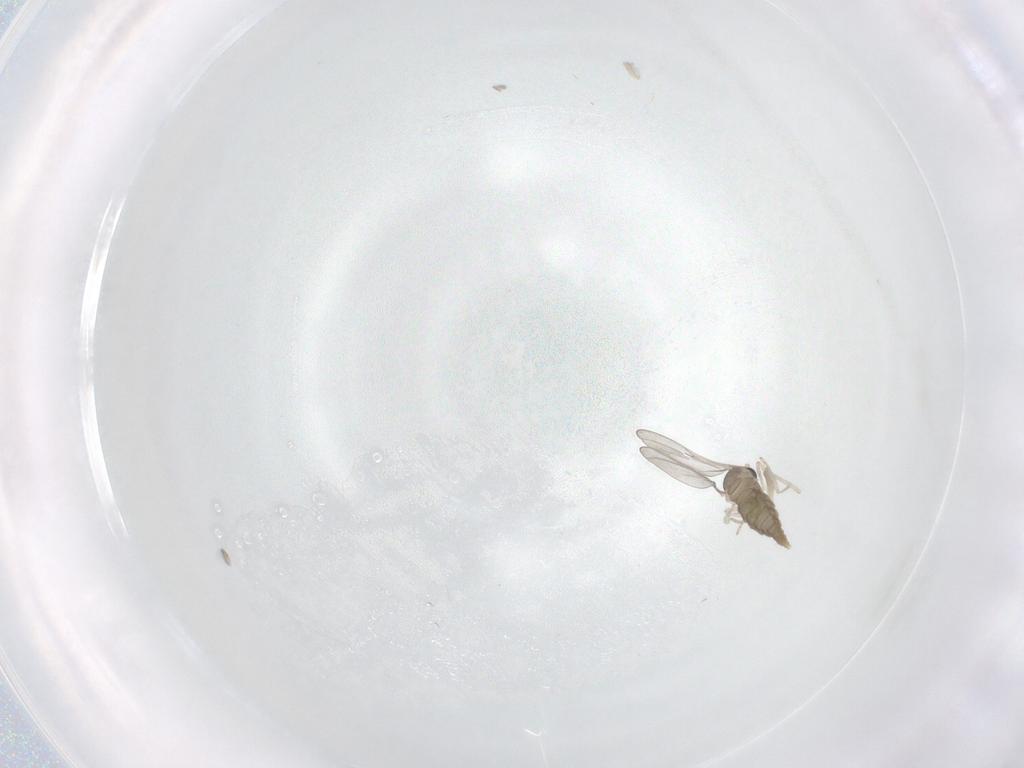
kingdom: Animalia
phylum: Arthropoda
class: Insecta
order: Diptera
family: Cecidomyiidae
